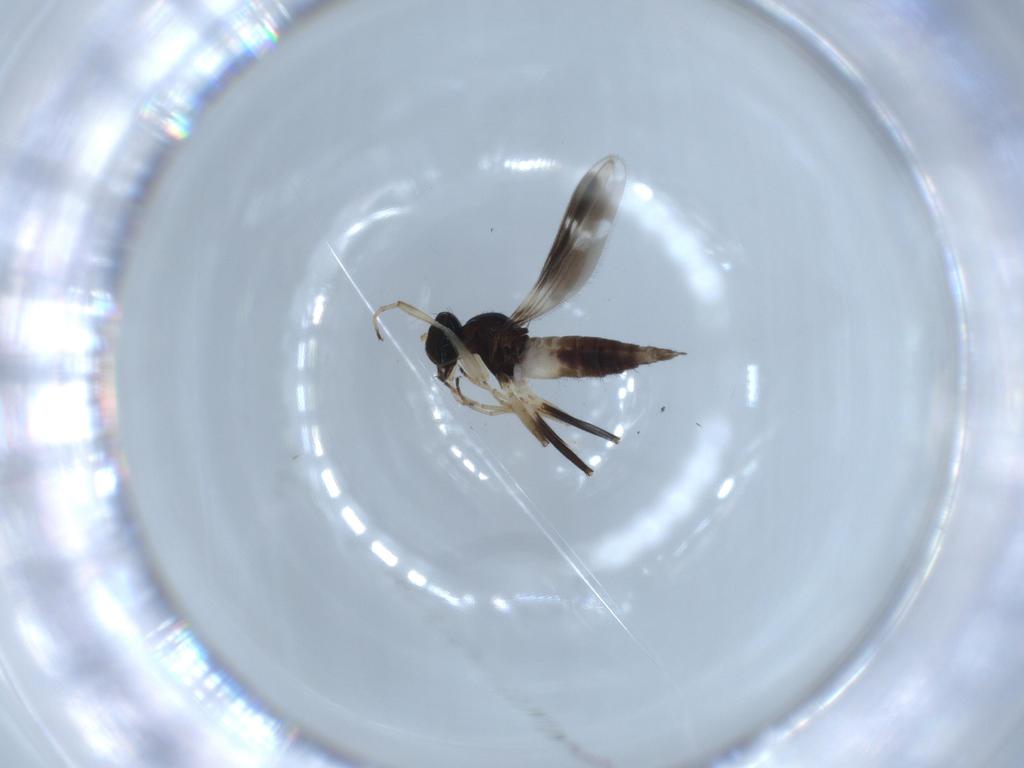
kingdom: Animalia
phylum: Arthropoda
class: Insecta
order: Diptera
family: Hybotidae
